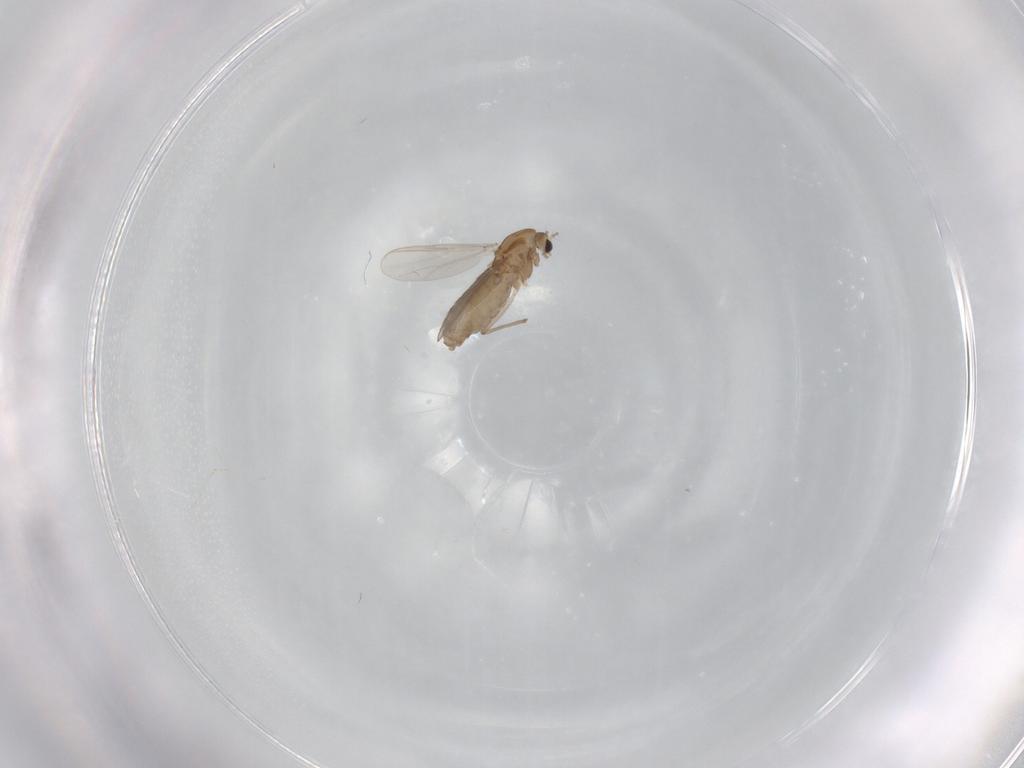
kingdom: Animalia
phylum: Arthropoda
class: Insecta
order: Diptera
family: Chironomidae
